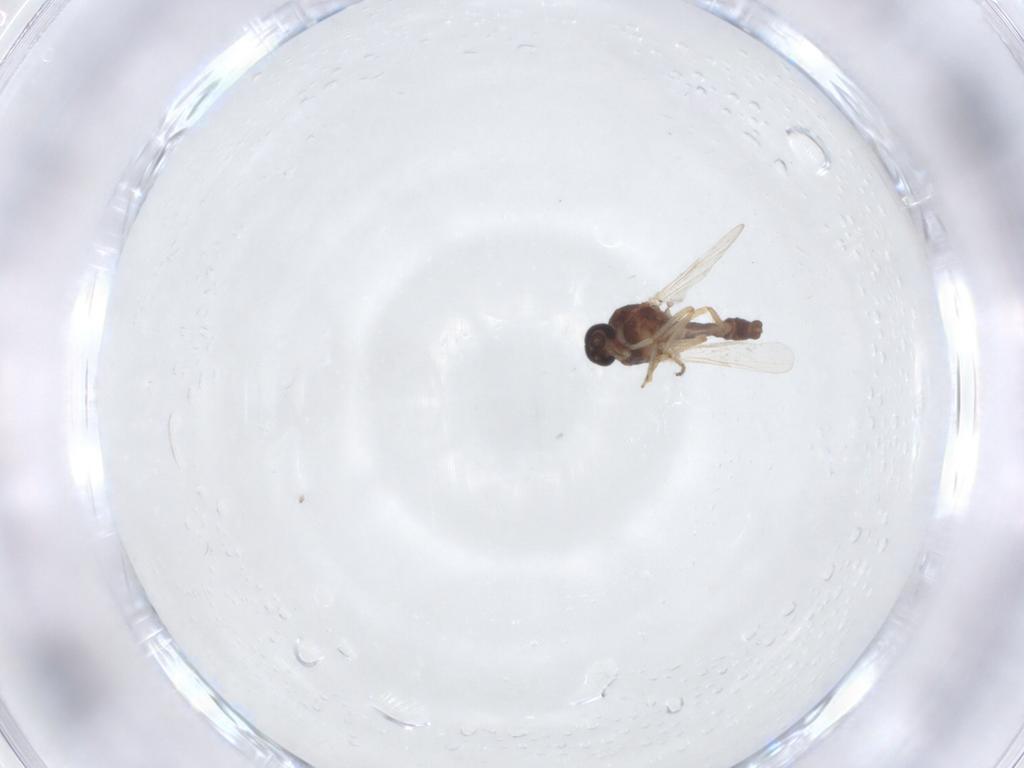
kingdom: Animalia
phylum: Arthropoda
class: Insecta
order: Diptera
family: Ceratopogonidae
